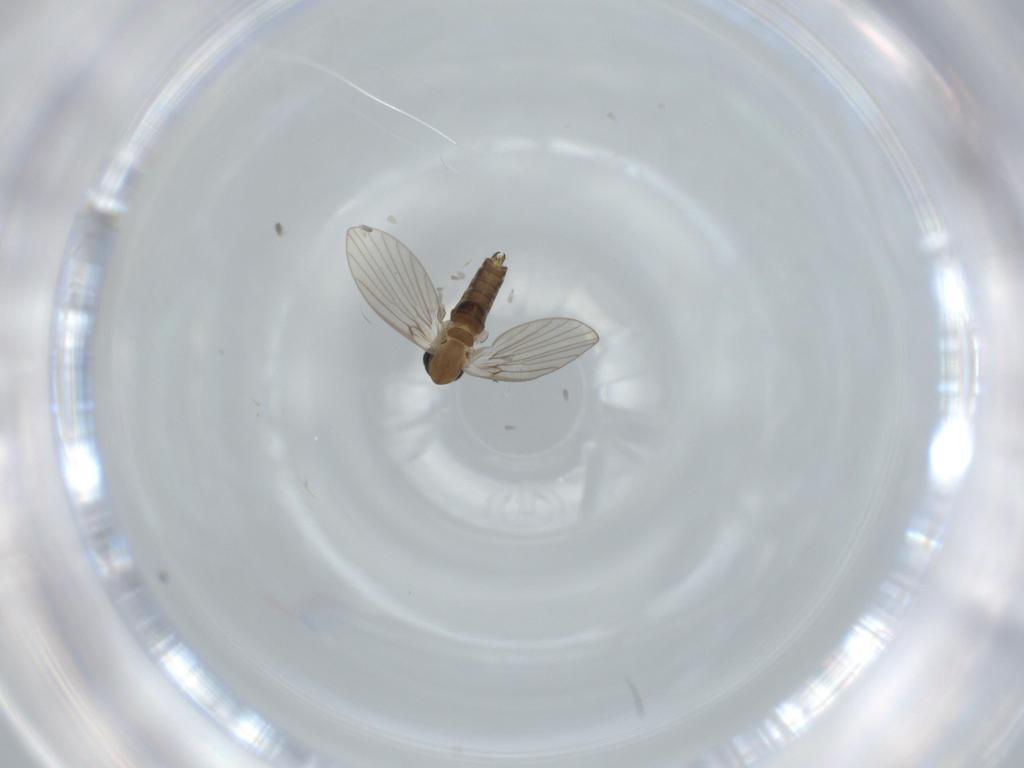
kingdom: Animalia
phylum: Arthropoda
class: Insecta
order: Diptera
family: Psychodidae
